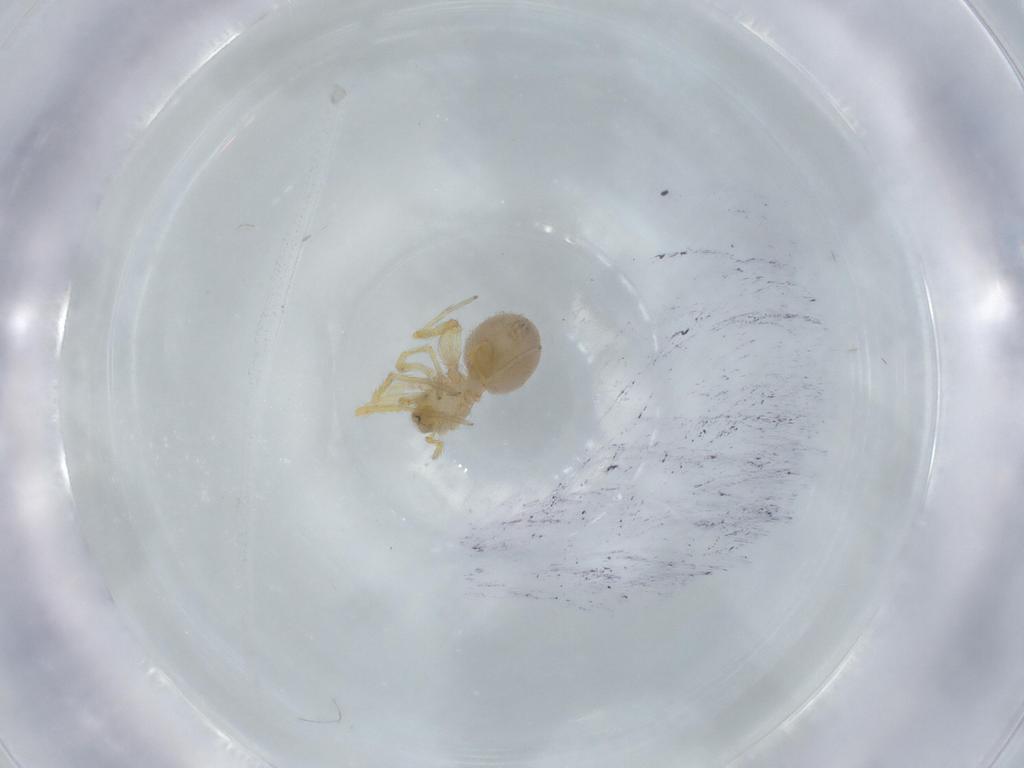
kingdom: Animalia
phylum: Arthropoda
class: Arachnida
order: Araneae
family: Oonopidae
